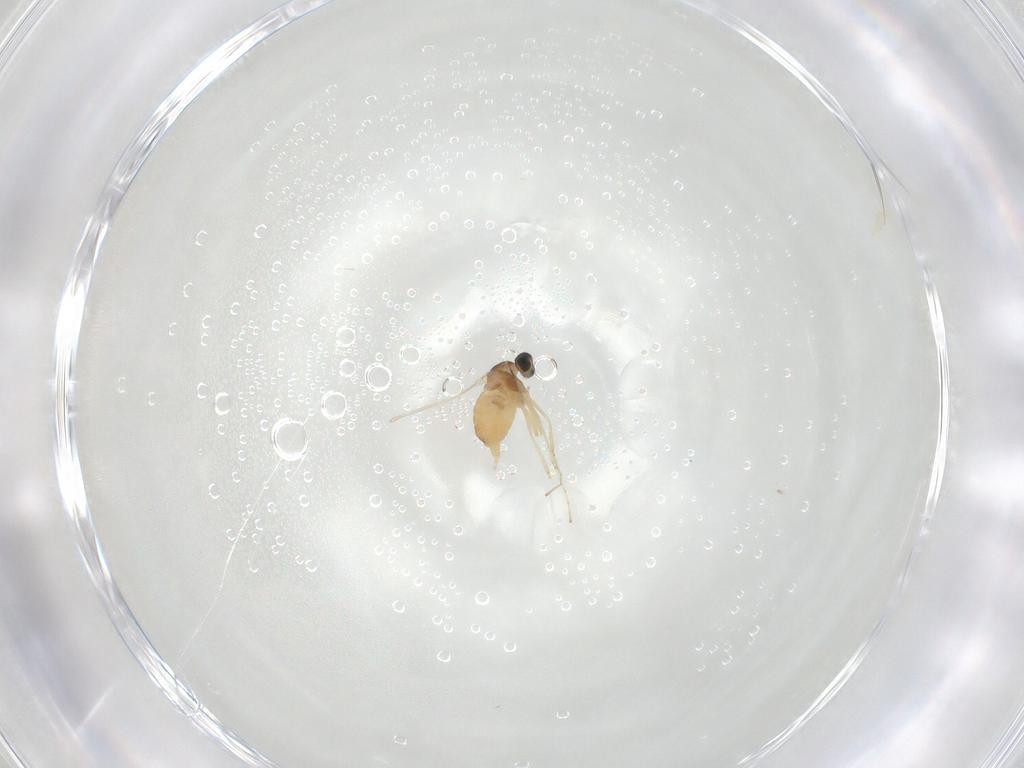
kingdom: Animalia
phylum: Arthropoda
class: Insecta
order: Diptera
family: Cecidomyiidae
